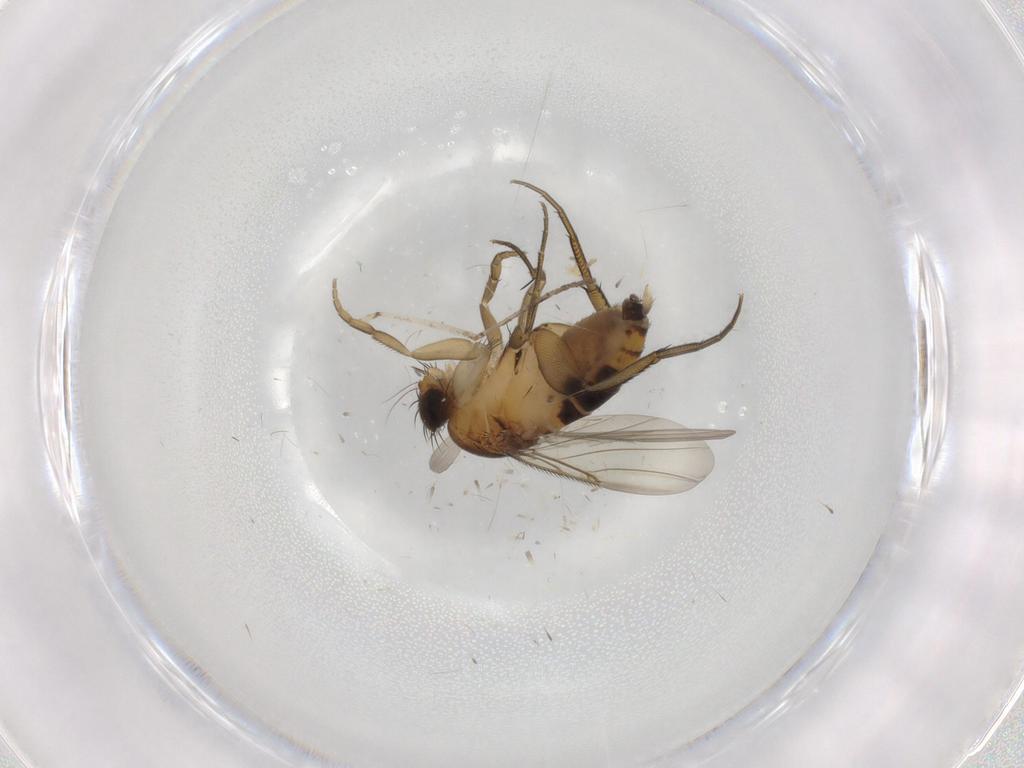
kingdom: Animalia
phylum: Arthropoda
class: Insecta
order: Diptera
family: Phoridae
